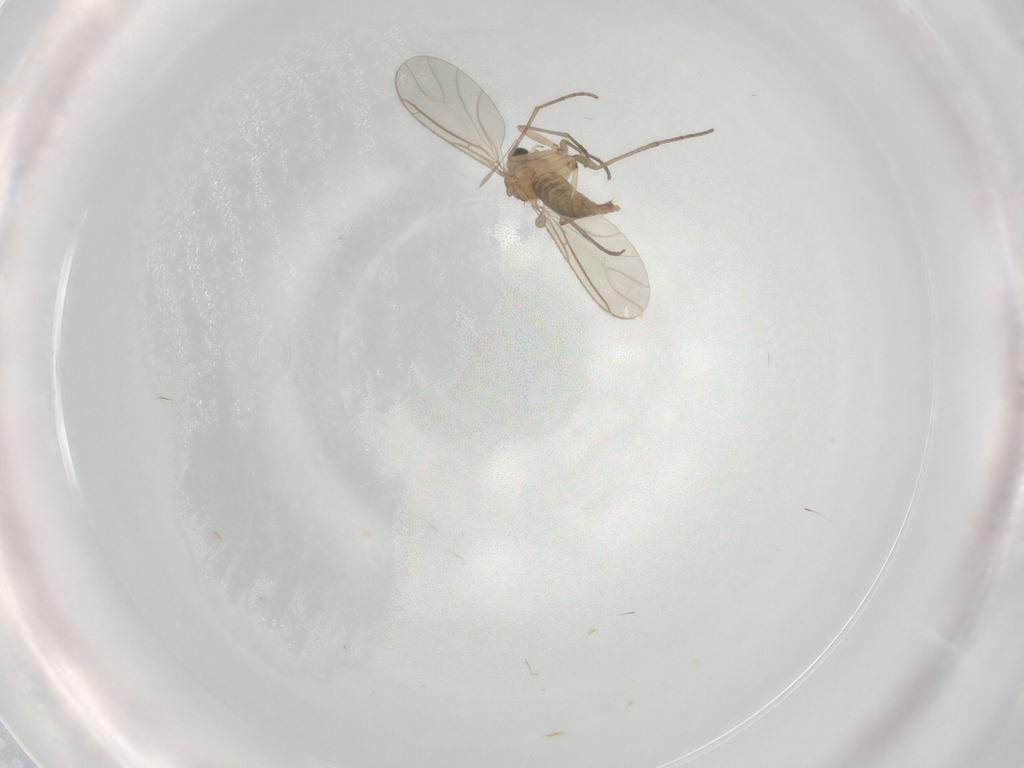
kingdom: Animalia
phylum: Arthropoda
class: Insecta
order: Diptera
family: Sciaridae
